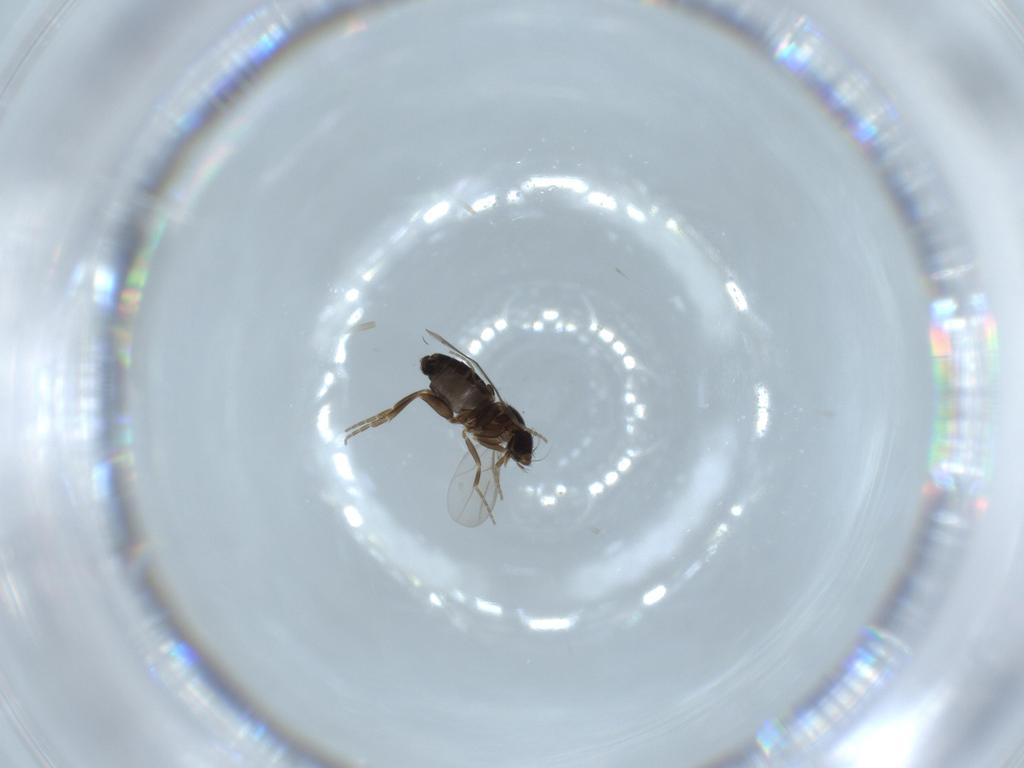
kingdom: Animalia
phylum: Arthropoda
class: Insecta
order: Diptera
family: Phoridae
